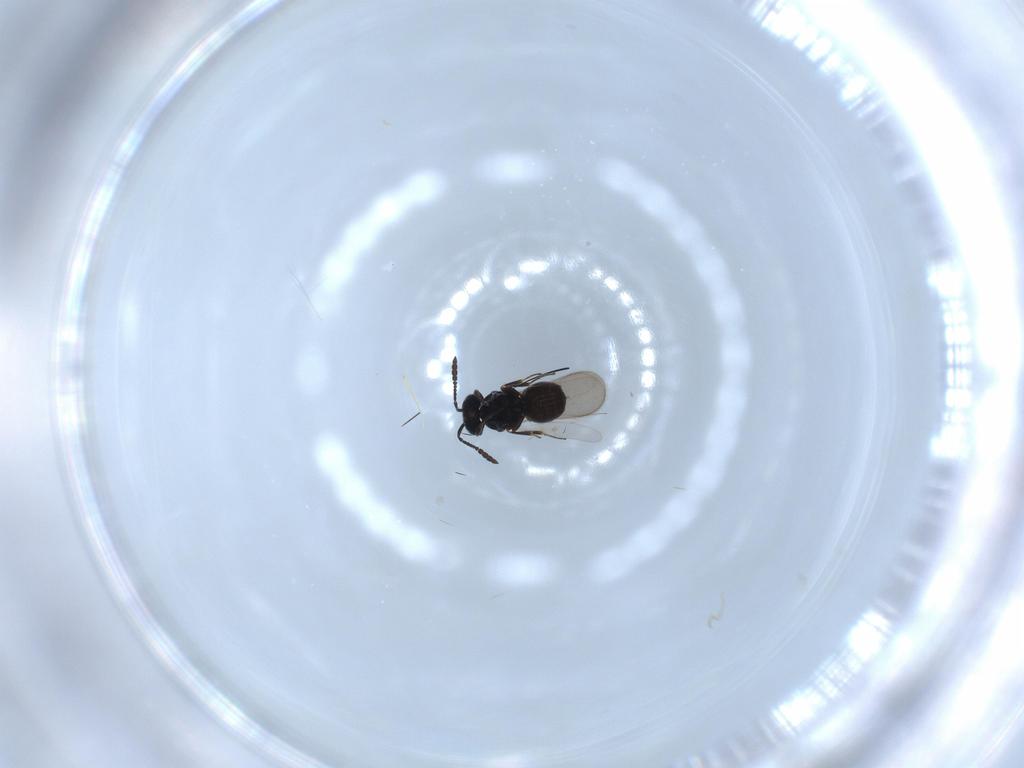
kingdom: Animalia
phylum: Arthropoda
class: Insecta
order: Hymenoptera
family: Scelionidae
